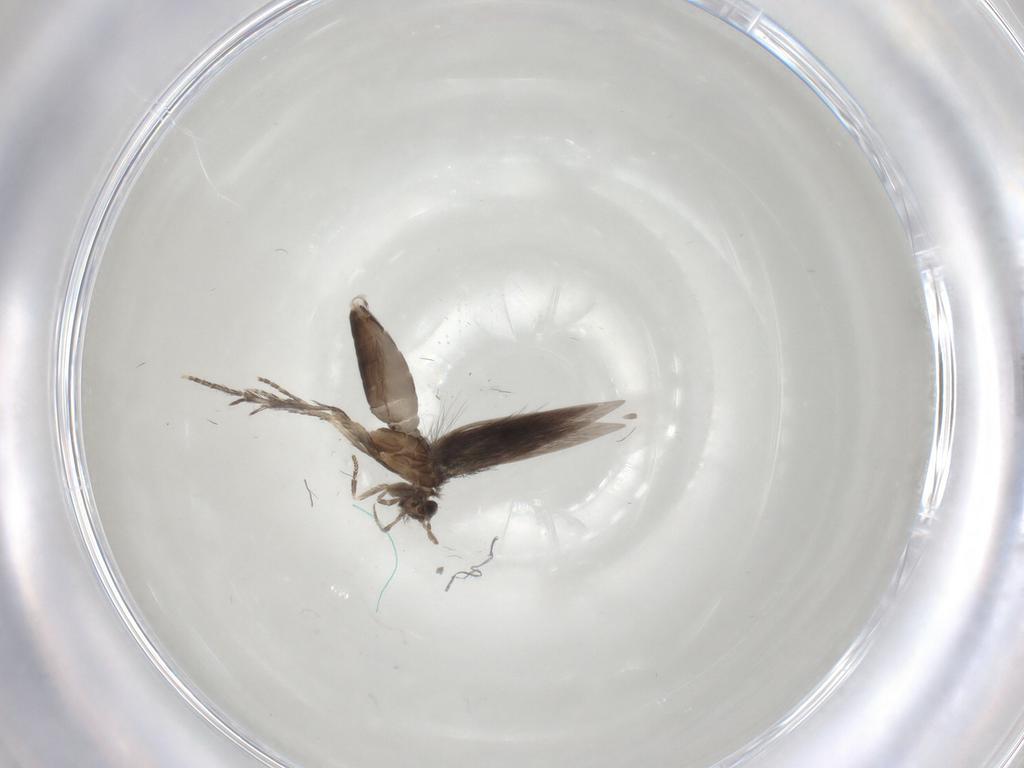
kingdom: Animalia
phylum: Arthropoda
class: Insecta
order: Trichoptera
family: Hydroptilidae
